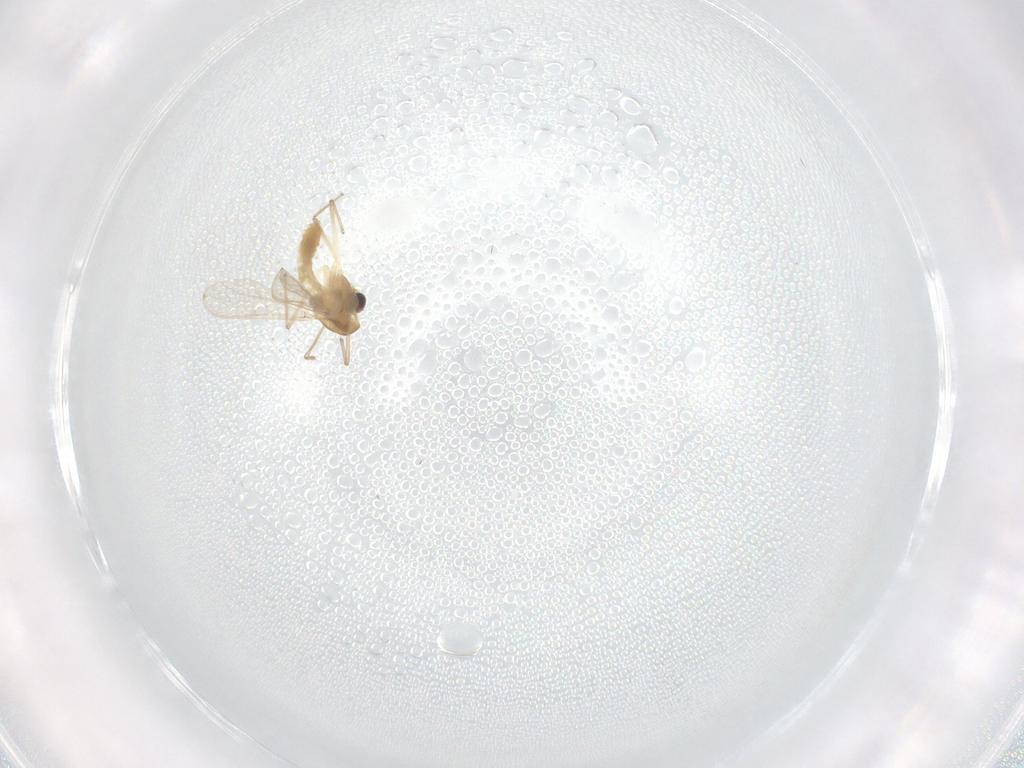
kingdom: Animalia
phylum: Arthropoda
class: Insecta
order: Diptera
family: Chironomidae
